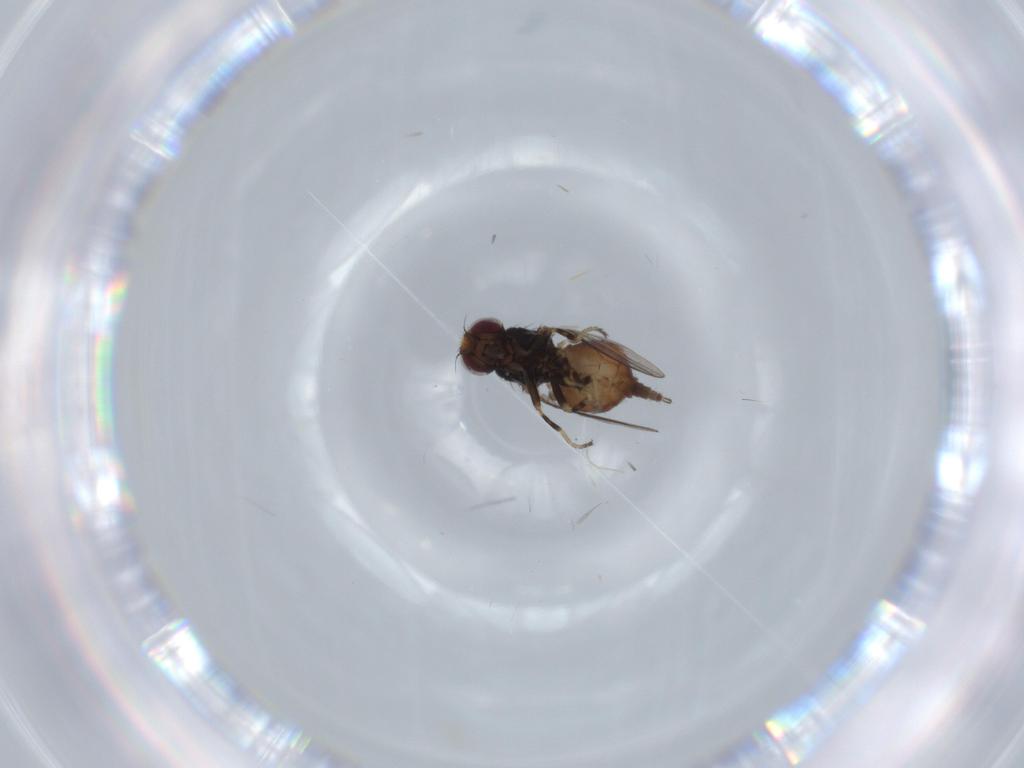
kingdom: Animalia
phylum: Arthropoda
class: Insecta
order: Diptera
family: Chloropidae
